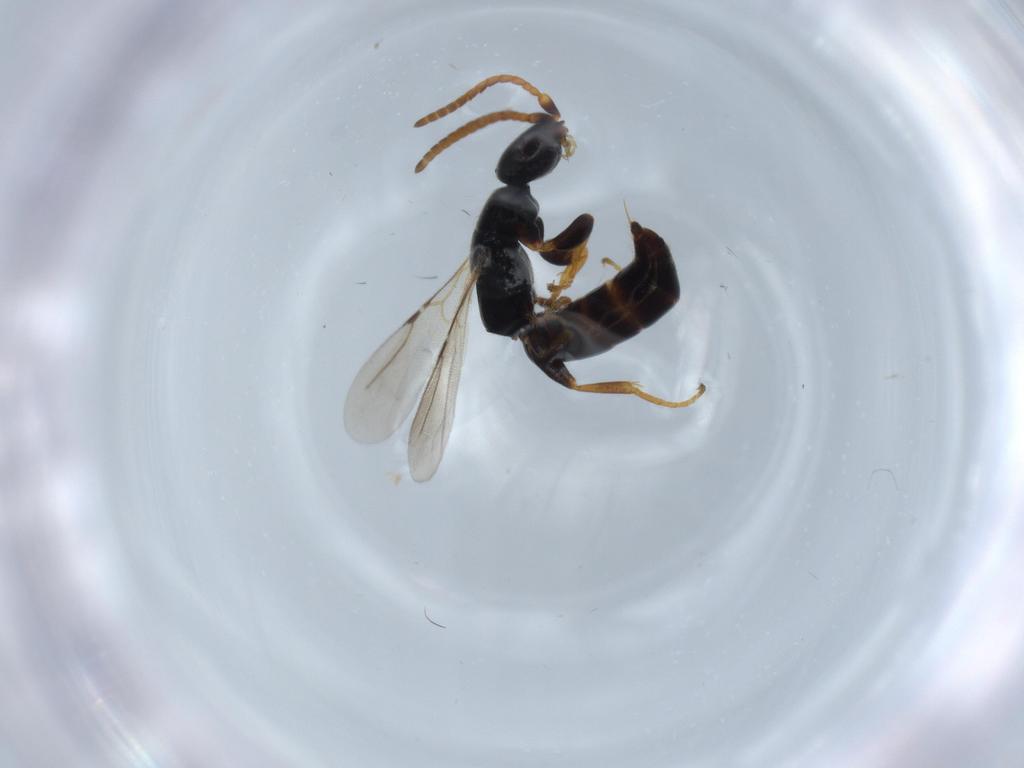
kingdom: Animalia
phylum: Arthropoda
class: Insecta
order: Hymenoptera
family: Bethylidae
